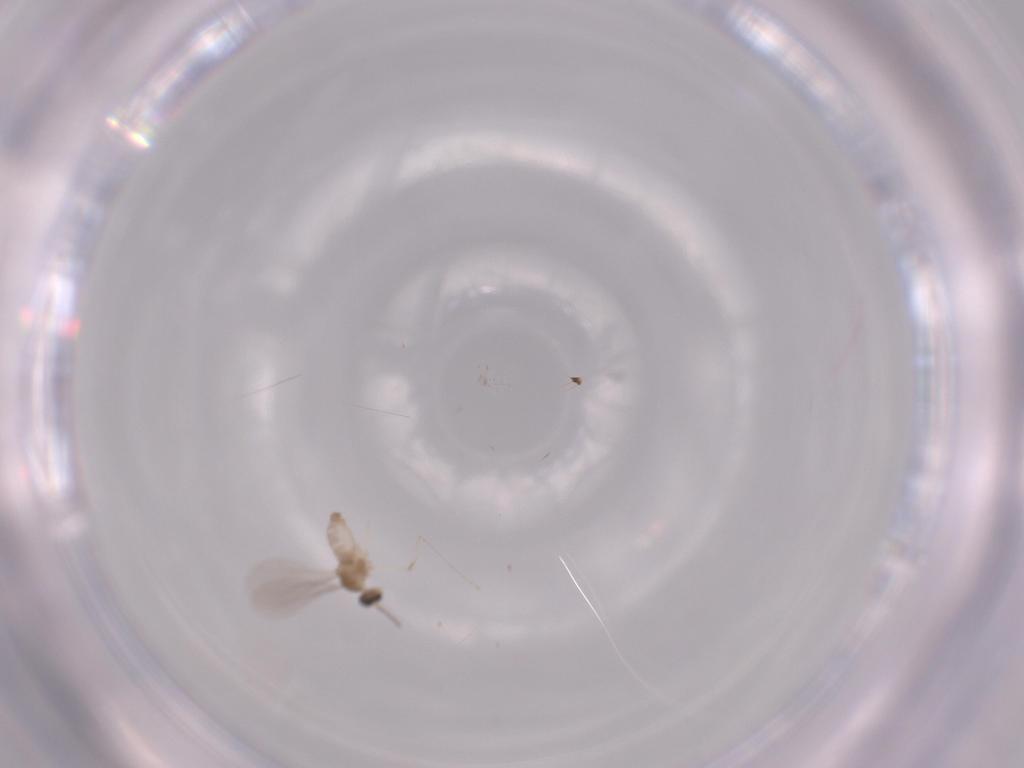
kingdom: Animalia
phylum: Arthropoda
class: Insecta
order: Diptera
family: Cecidomyiidae
